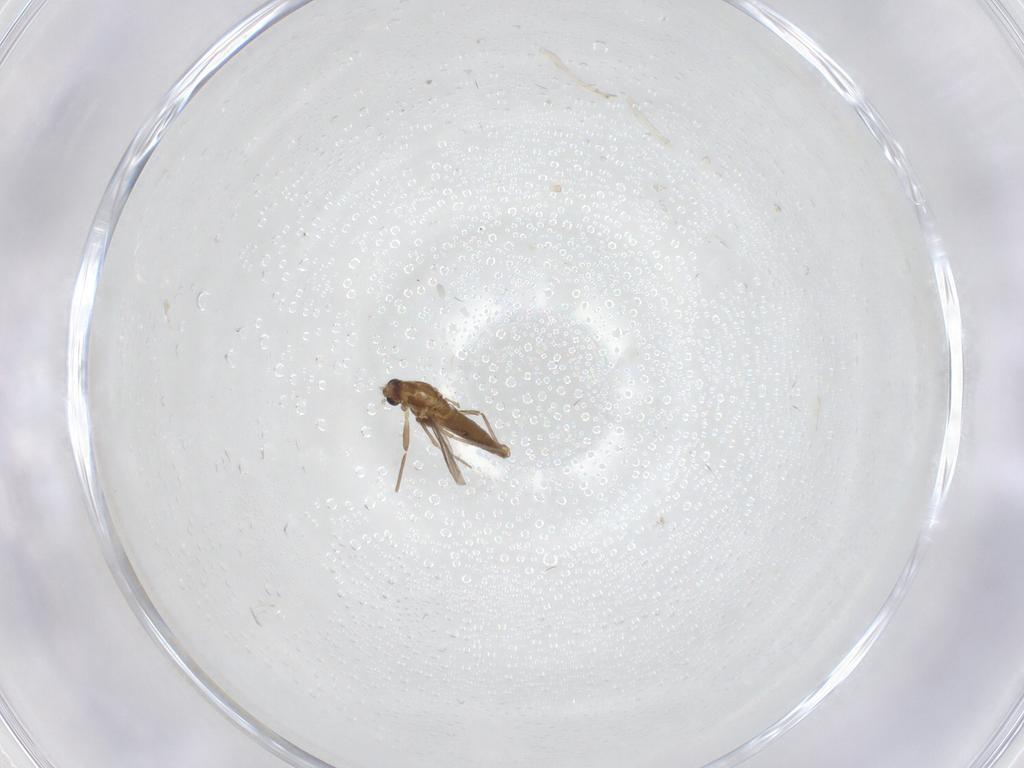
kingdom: Animalia
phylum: Arthropoda
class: Insecta
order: Diptera
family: Chironomidae
